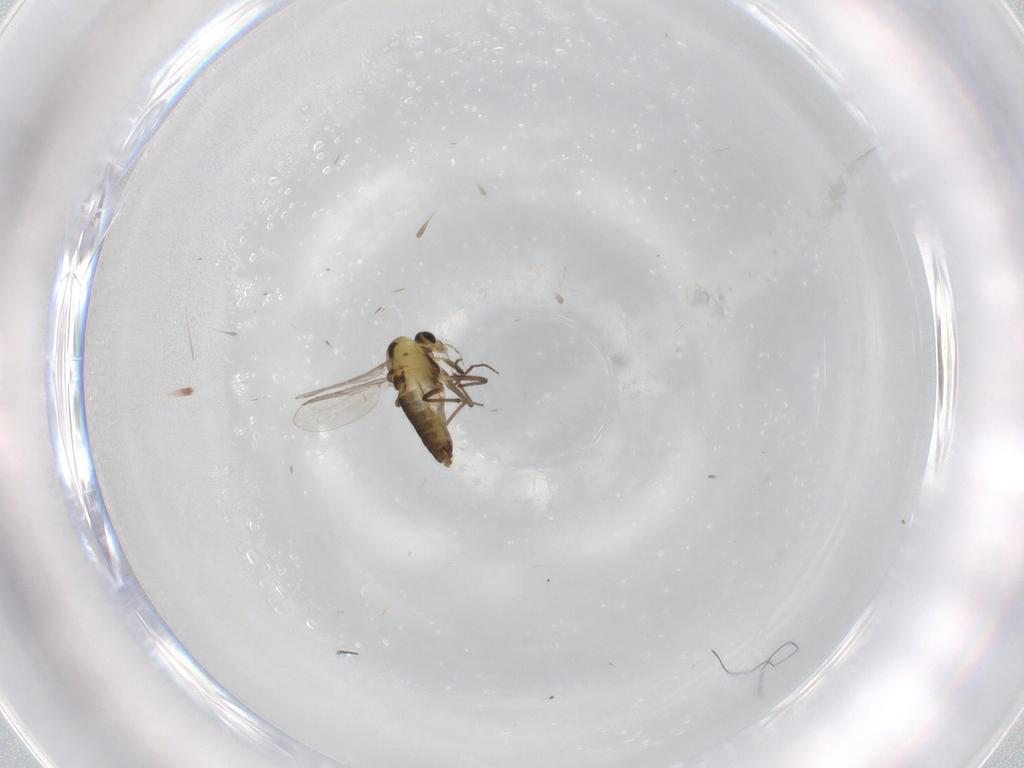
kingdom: Animalia
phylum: Arthropoda
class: Insecta
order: Diptera
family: Chironomidae
